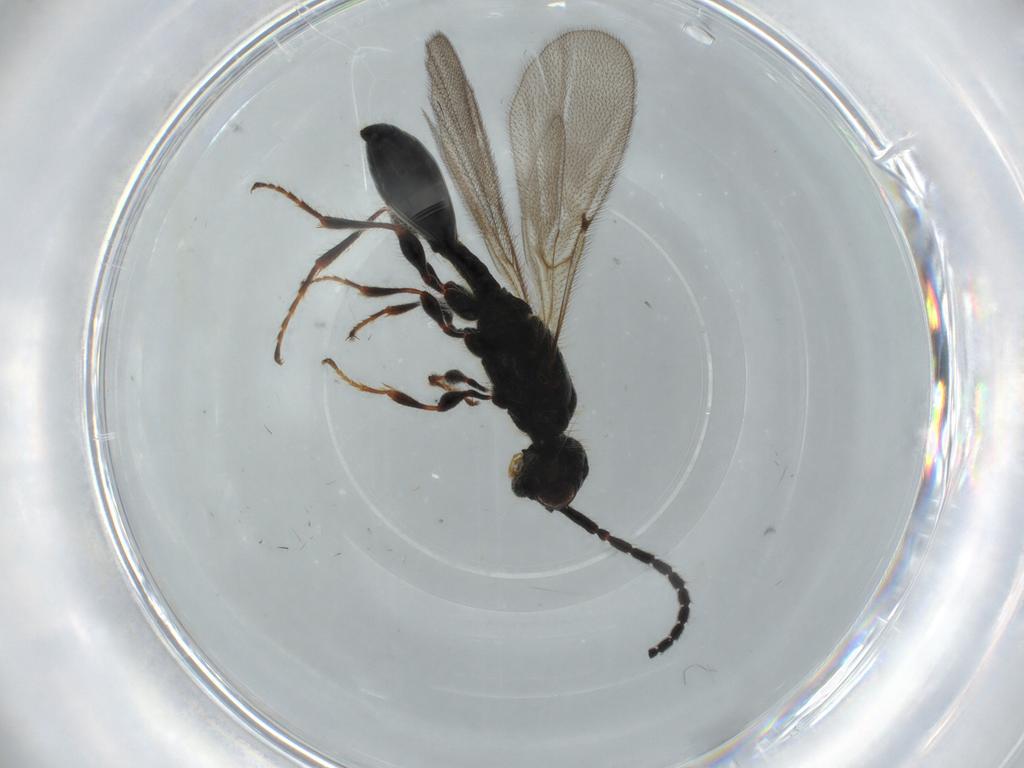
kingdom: Animalia
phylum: Arthropoda
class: Insecta
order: Hymenoptera
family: Diapriidae
